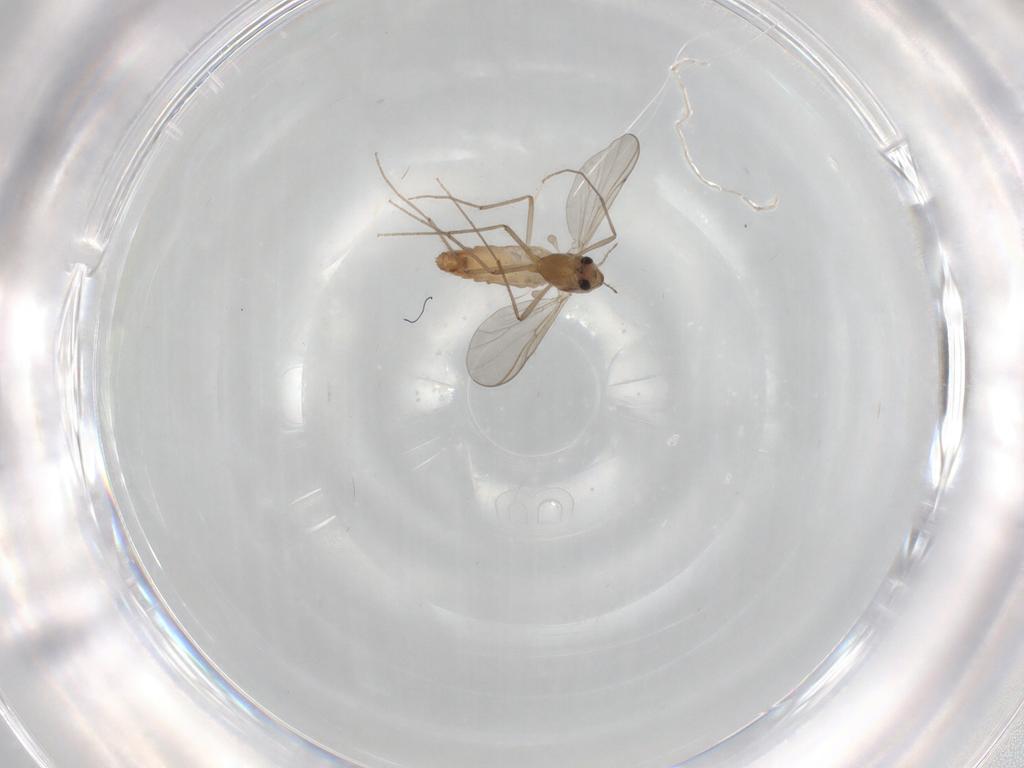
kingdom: Animalia
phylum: Arthropoda
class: Insecta
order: Diptera
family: Chironomidae
